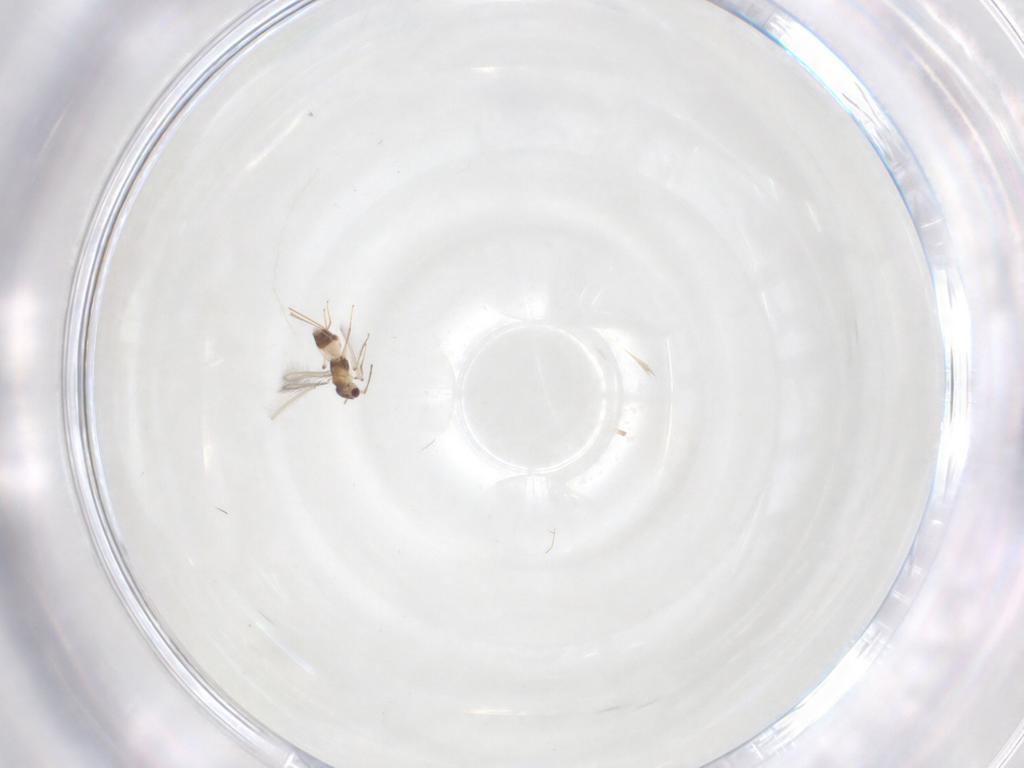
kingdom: Animalia
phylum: Arthropoda
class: Insecta
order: Hymenoptera
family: Mymaridae
